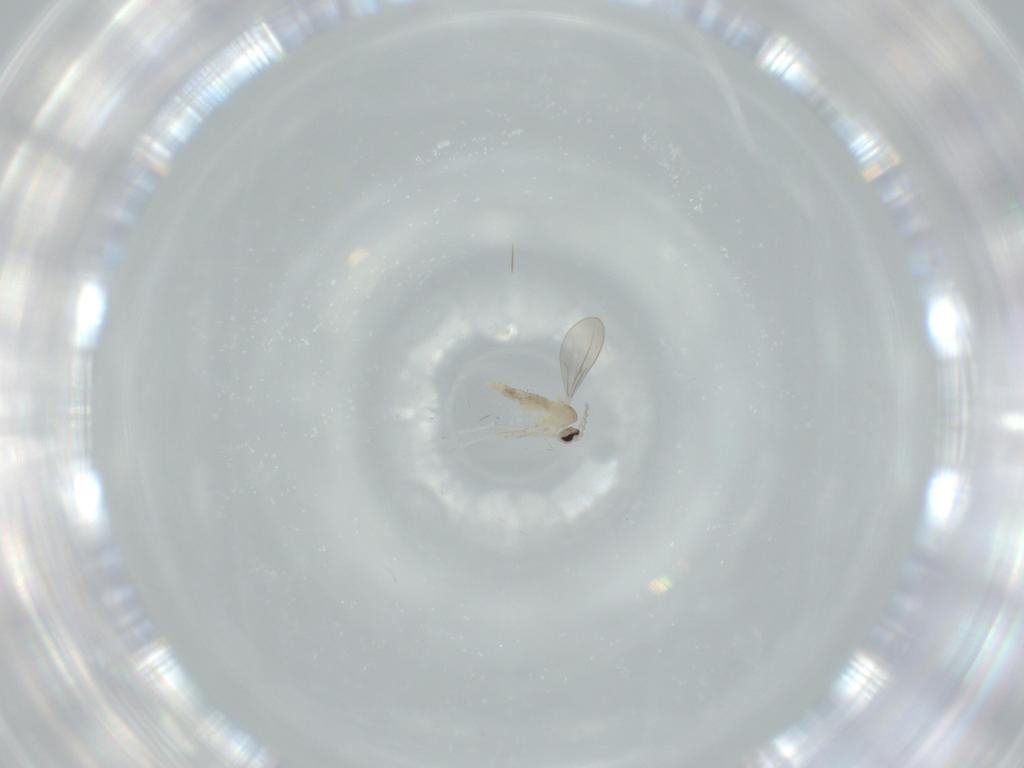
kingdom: Animalia
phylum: Arthropoda
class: Insecta
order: Diptera
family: Cecidomyiidae
